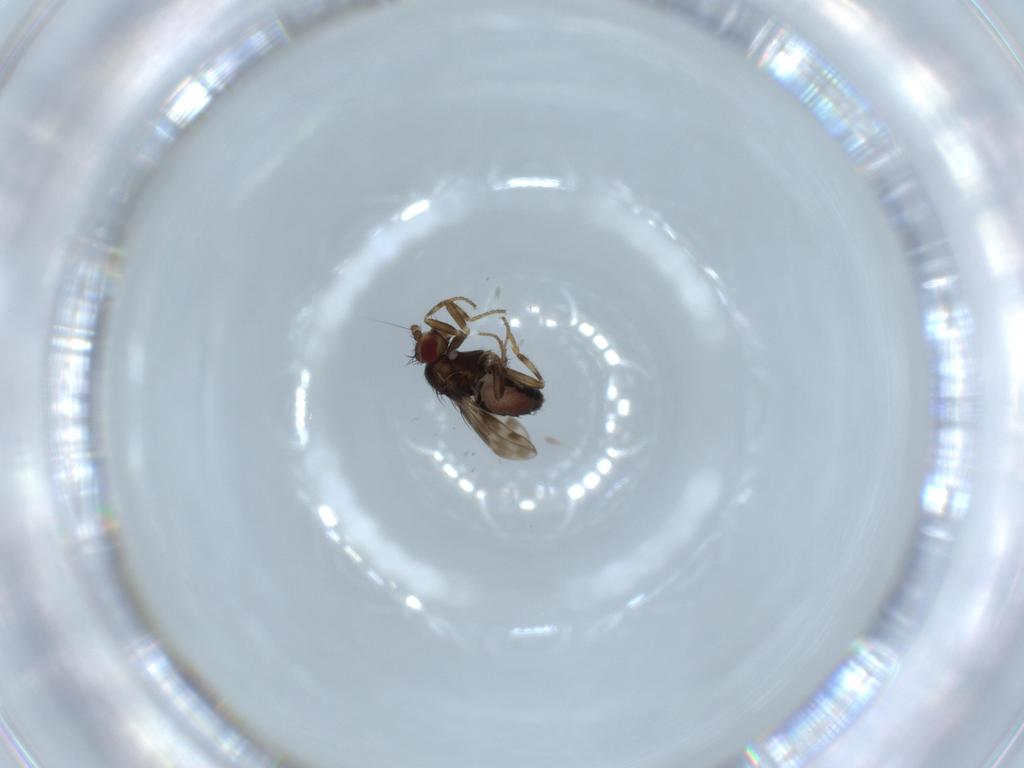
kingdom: Animalia
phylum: Arthropoda
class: Insecta
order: Diptera
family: Sphaeroceridae
